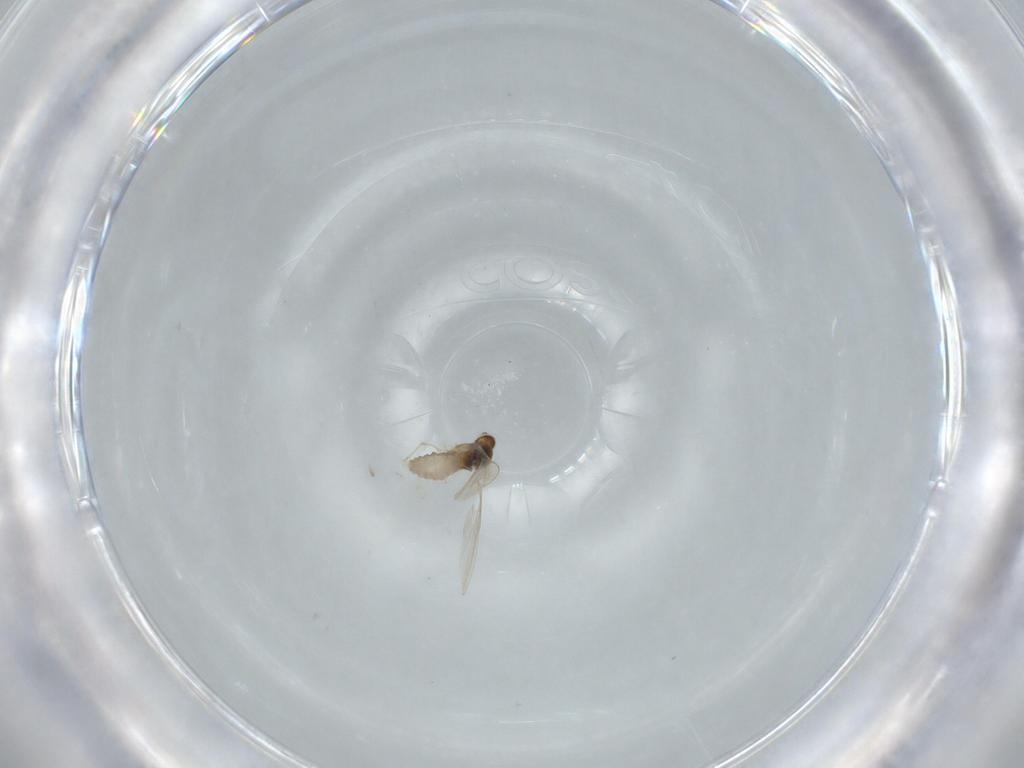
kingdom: Animalia
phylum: Arthropoda
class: Insecta
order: Diptera
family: Cecidomyiidae
